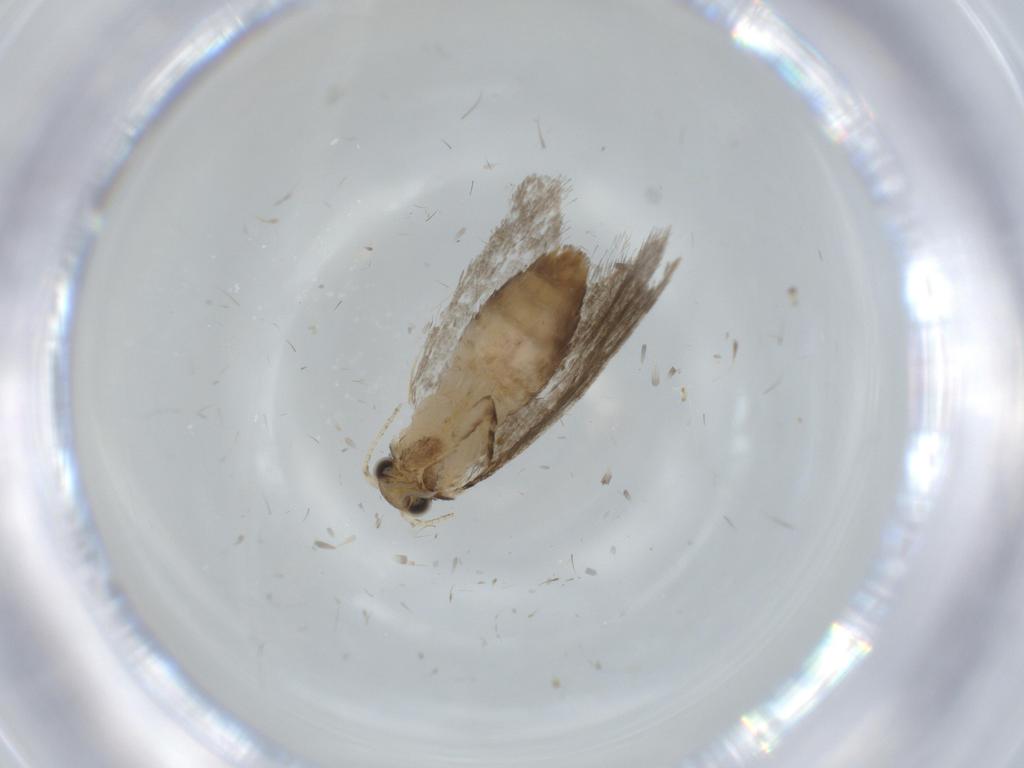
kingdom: Animalia
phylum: Arthropoda
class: Insecta
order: Lepidoptera
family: Tineidae
